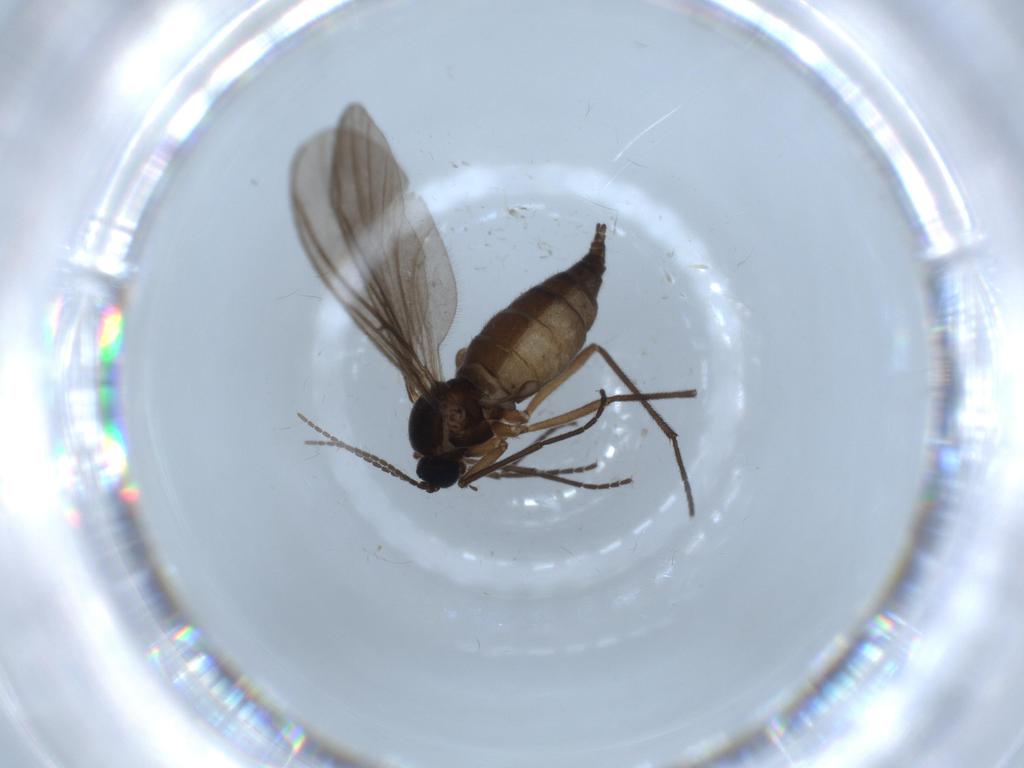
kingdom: Animalia
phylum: Arthropoda
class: Insecta
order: Diptera
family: Sciaridae
